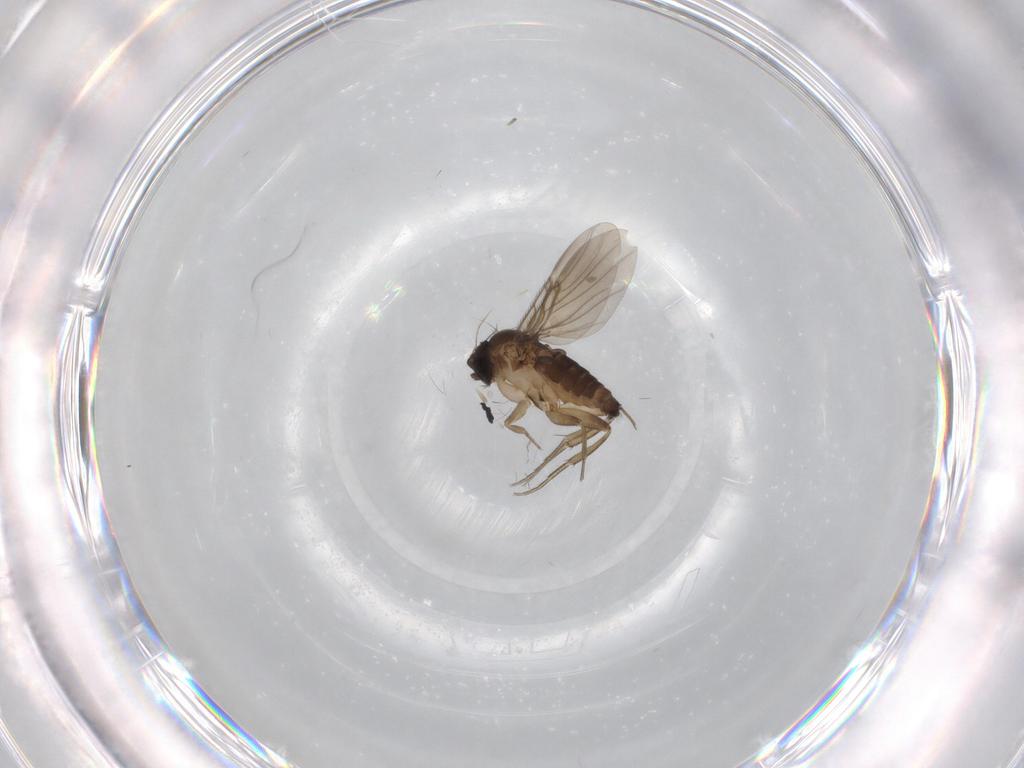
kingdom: Animalia
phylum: Arthropoda
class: Insecta
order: Diptera
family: Phoridae
